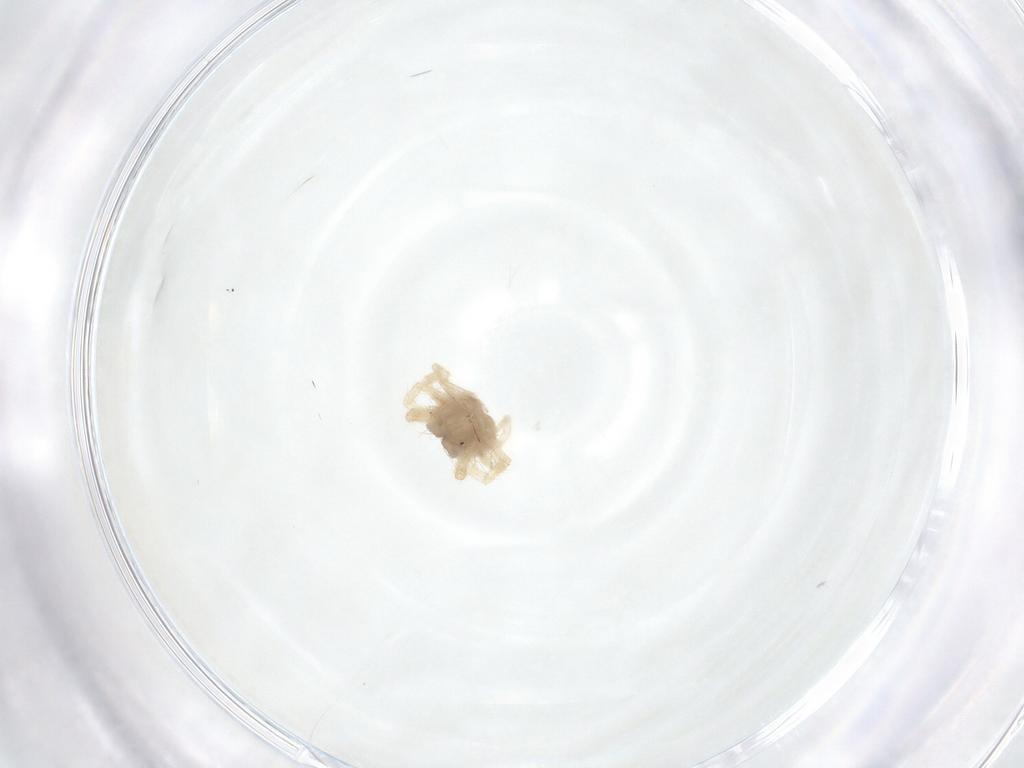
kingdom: Animalia
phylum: Arthropoda
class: Arachnida
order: Trombidiformes
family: Anystidae
